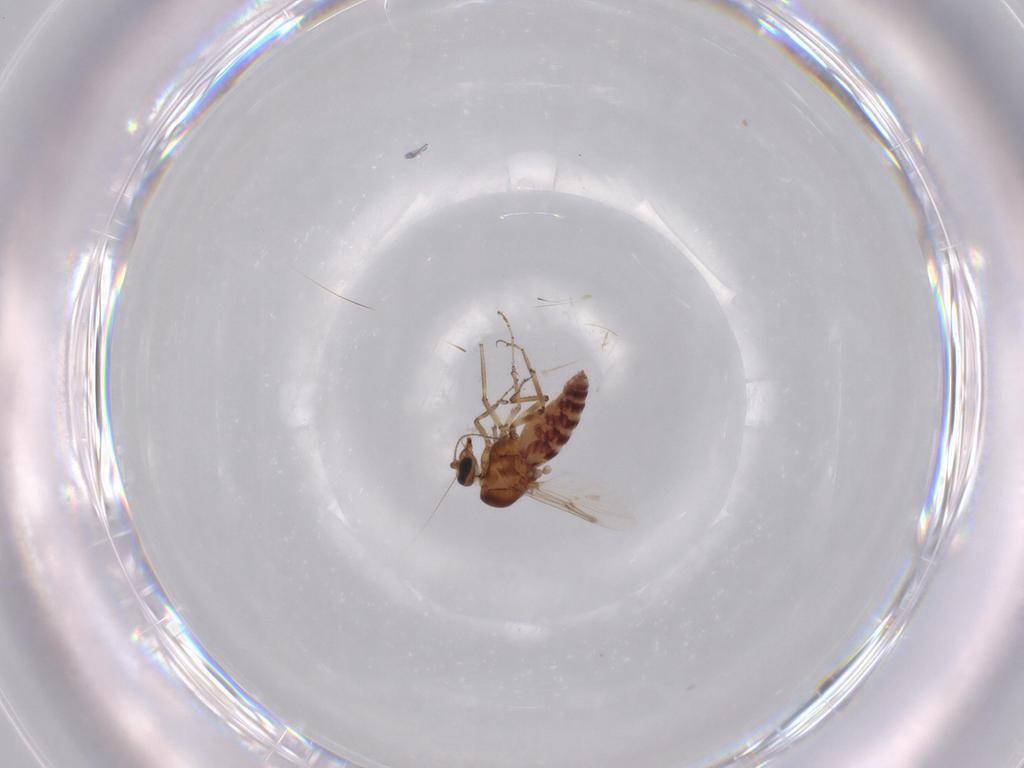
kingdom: Animalia
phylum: Arthropoda
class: Insecta
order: Diptera
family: Ceratopogonidae
